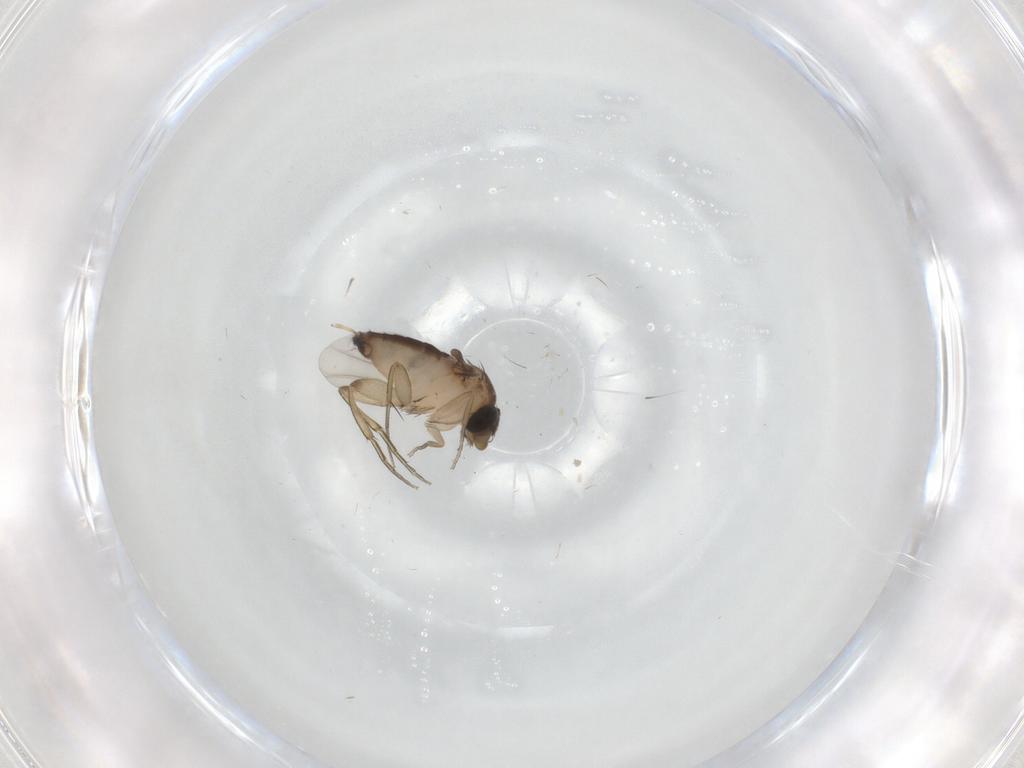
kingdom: Animalia
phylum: Arthropoda
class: Insecta
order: Diptera
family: Phoridae
